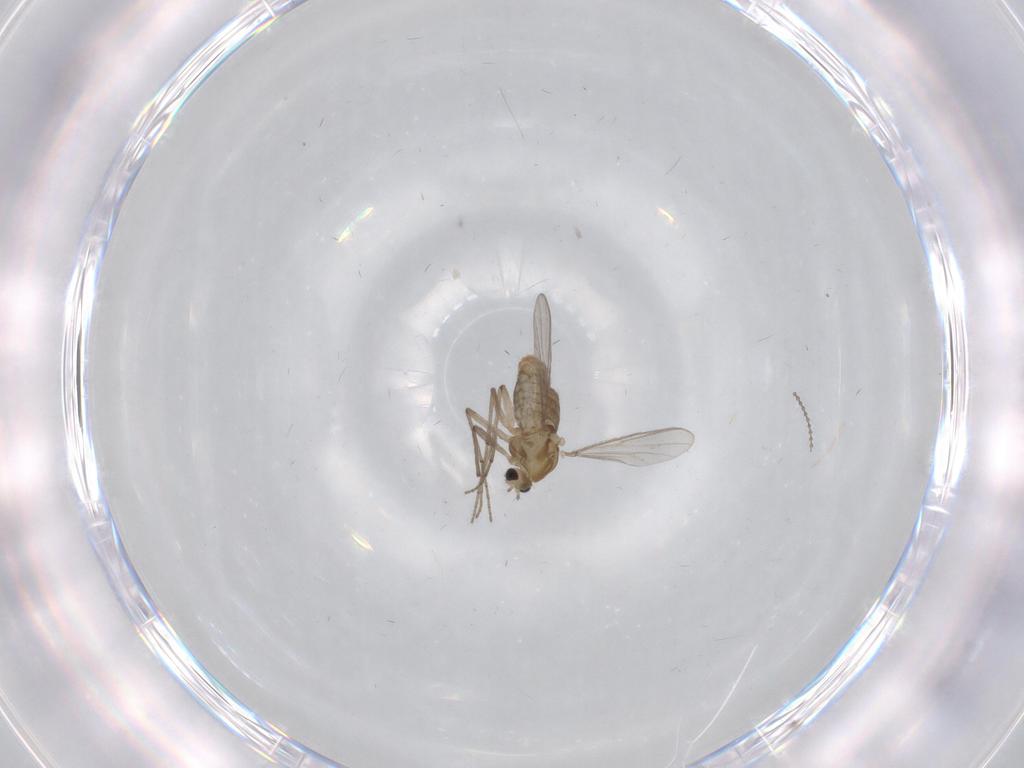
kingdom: Animalia
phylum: Arthropoda
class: Insecta
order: Diptera
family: Chironomidae
